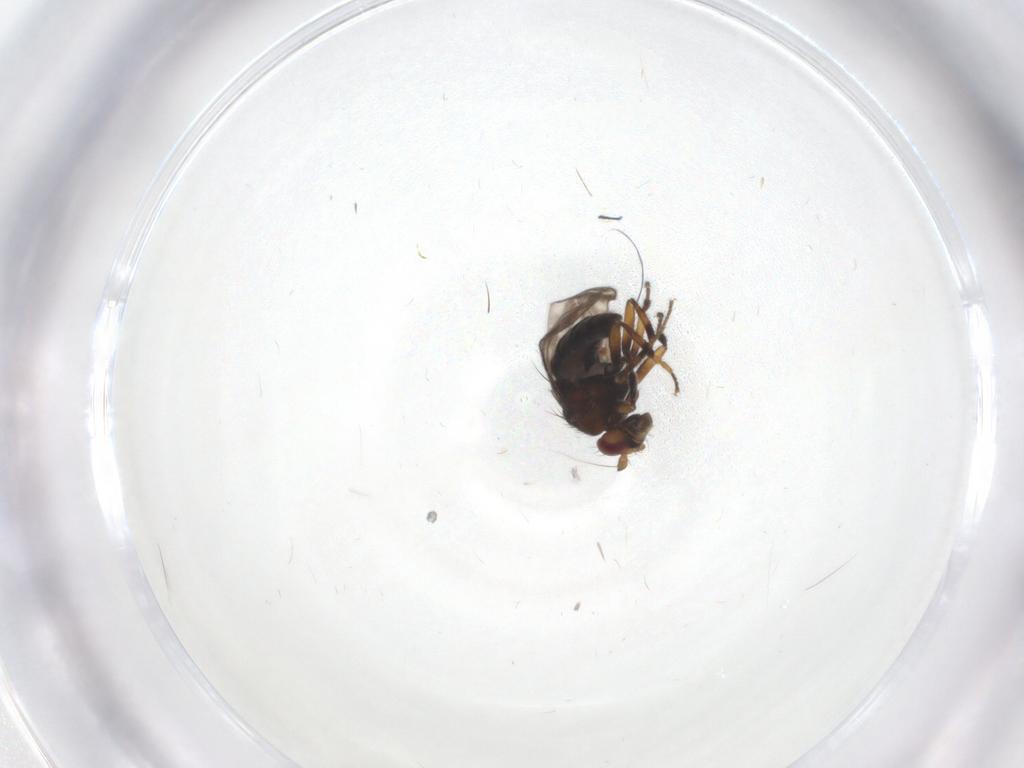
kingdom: Animalia
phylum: Arthropoda
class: Insecta
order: Diptera
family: Sphaeroceridae
